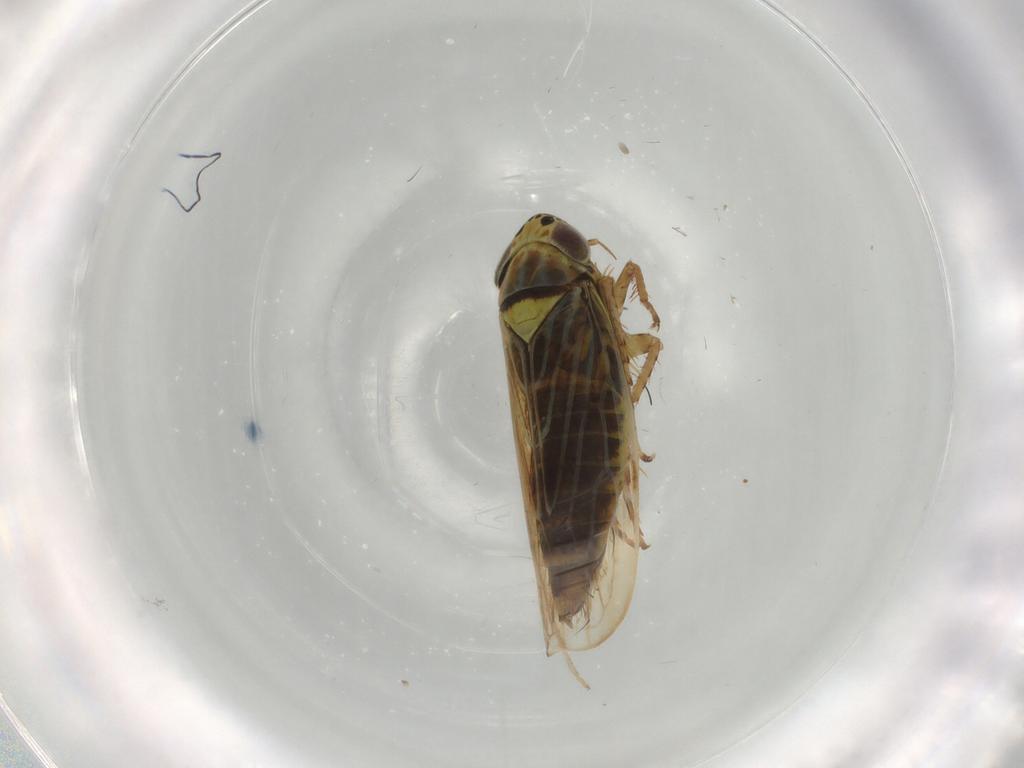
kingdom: Animalia
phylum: Arthropoda
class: Insecta
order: Hemiptera
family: Cicadellidae
